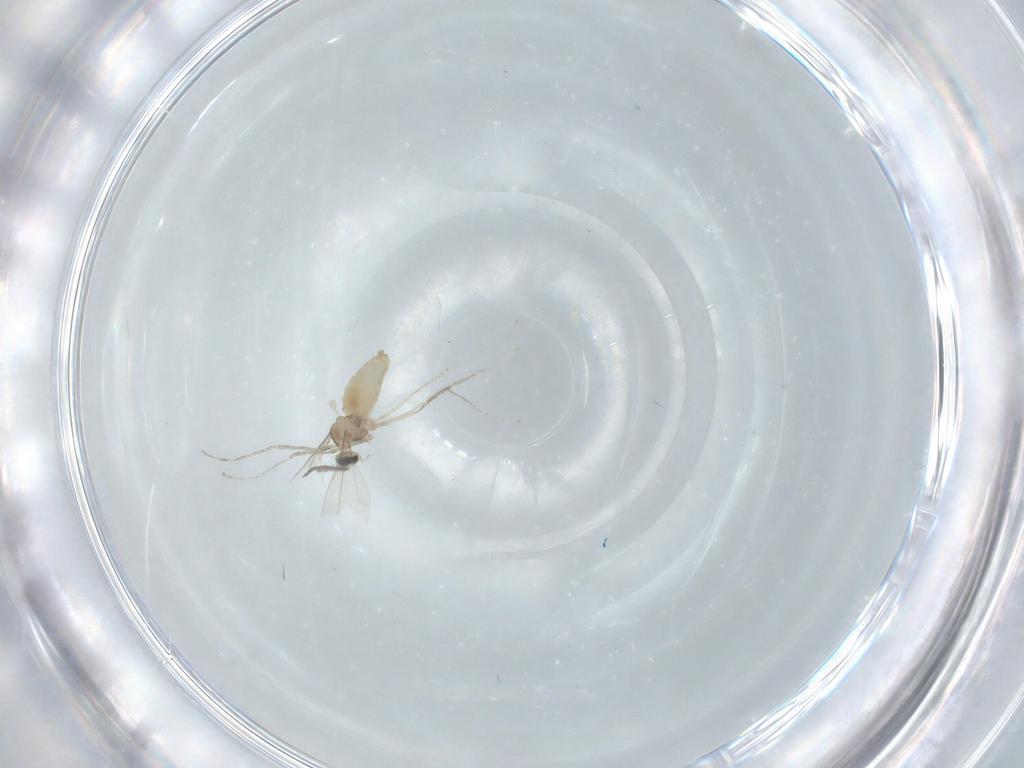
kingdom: Animalia
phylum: Arthropoda
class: Insecta
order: Diptera
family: Cecidomyiidae
